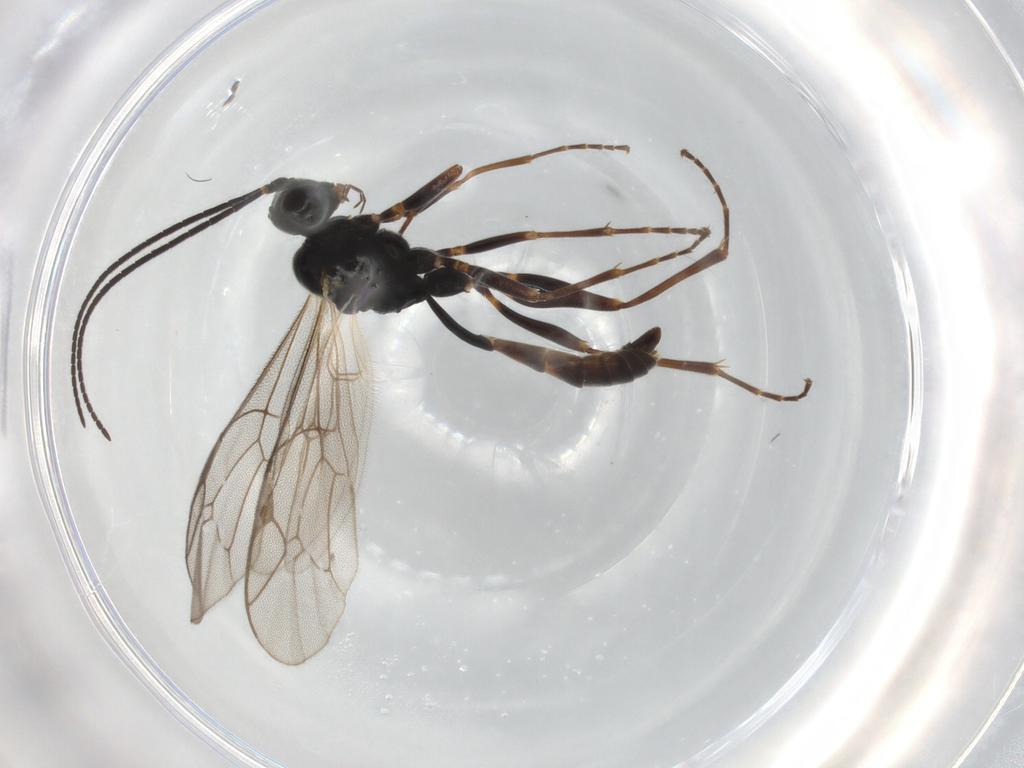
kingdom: Animalia
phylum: Arthropoda
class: Insecta
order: Hymenoptera
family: Ichneumonidae
